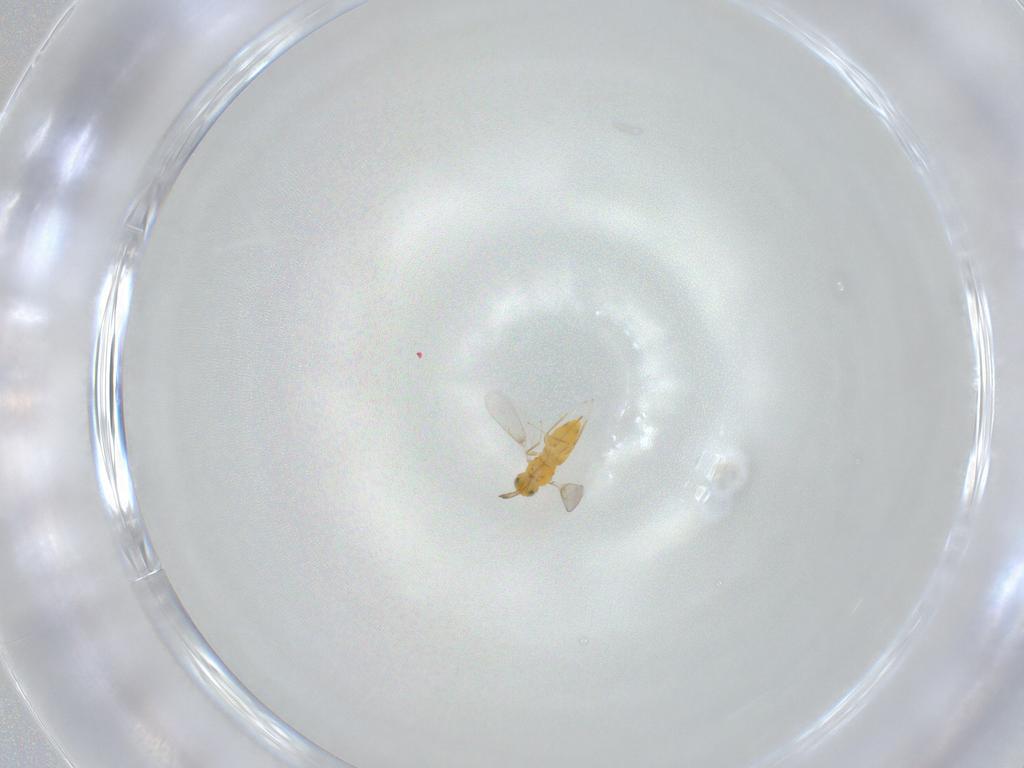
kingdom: Animalia
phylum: Arthropoda
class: Insecta
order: Hymenoptera
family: Aphelinidae
